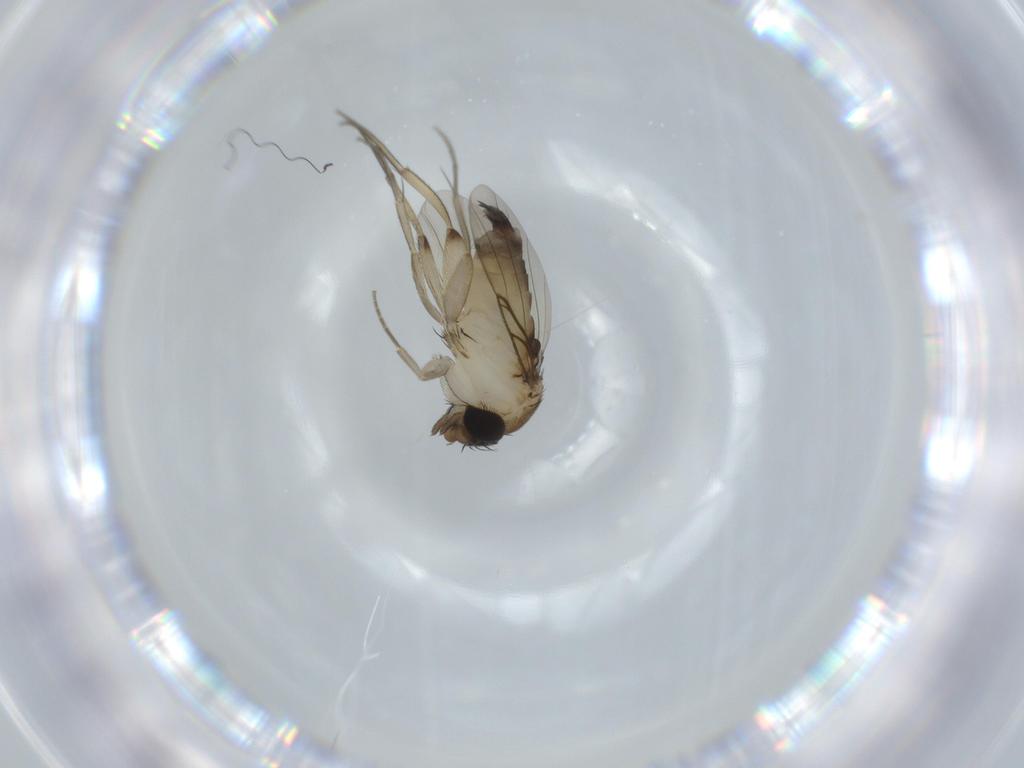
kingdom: Animalia
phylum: Arthropoda
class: Insecta
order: Diptera
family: Phoridae
